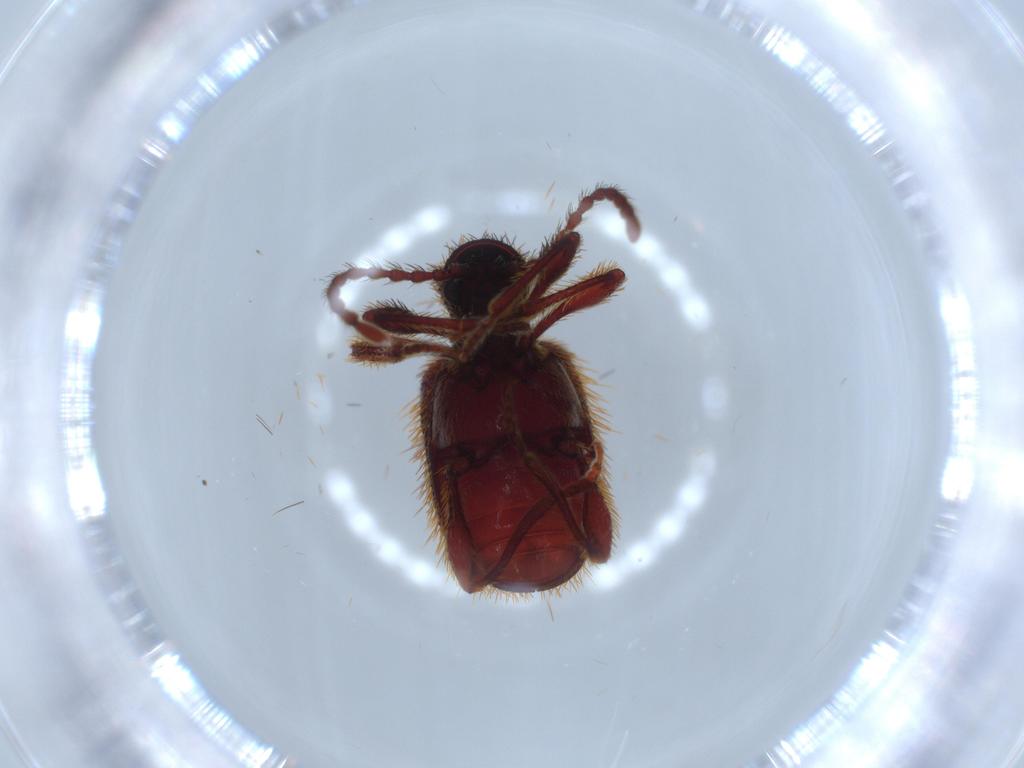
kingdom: Animalia
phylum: Arthropoda
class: Insecta
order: Coleoptera
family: Ptinidae
